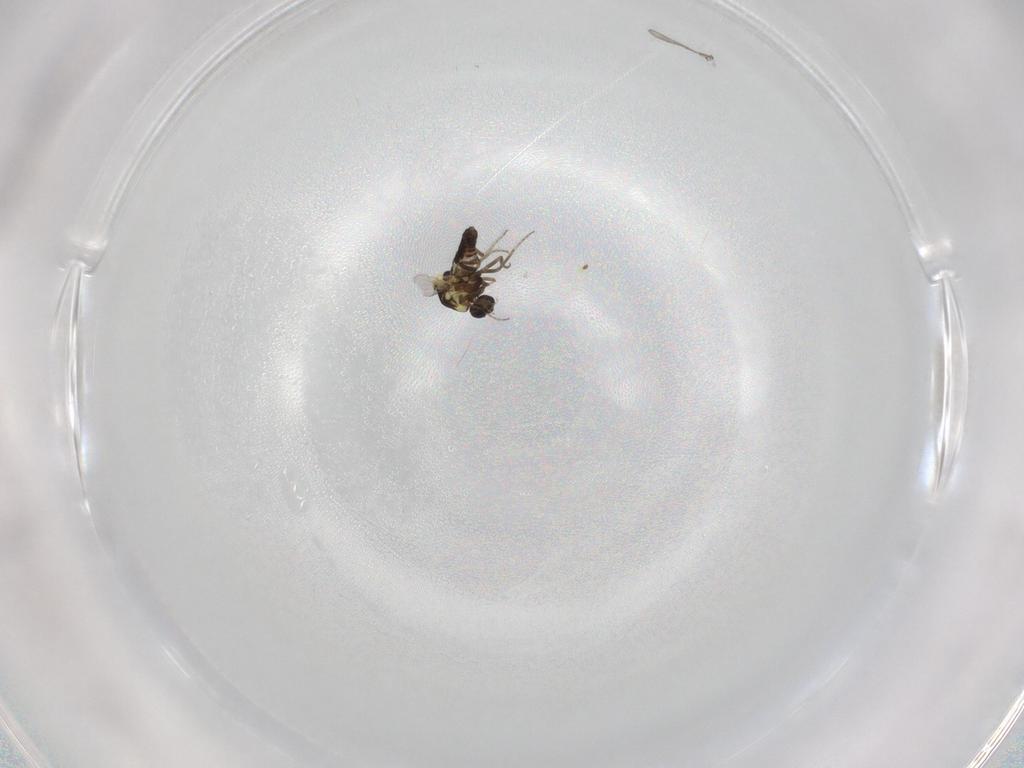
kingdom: Animalia
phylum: Arthropoda
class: Insecta
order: Diptera
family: Ceratopogonidae
